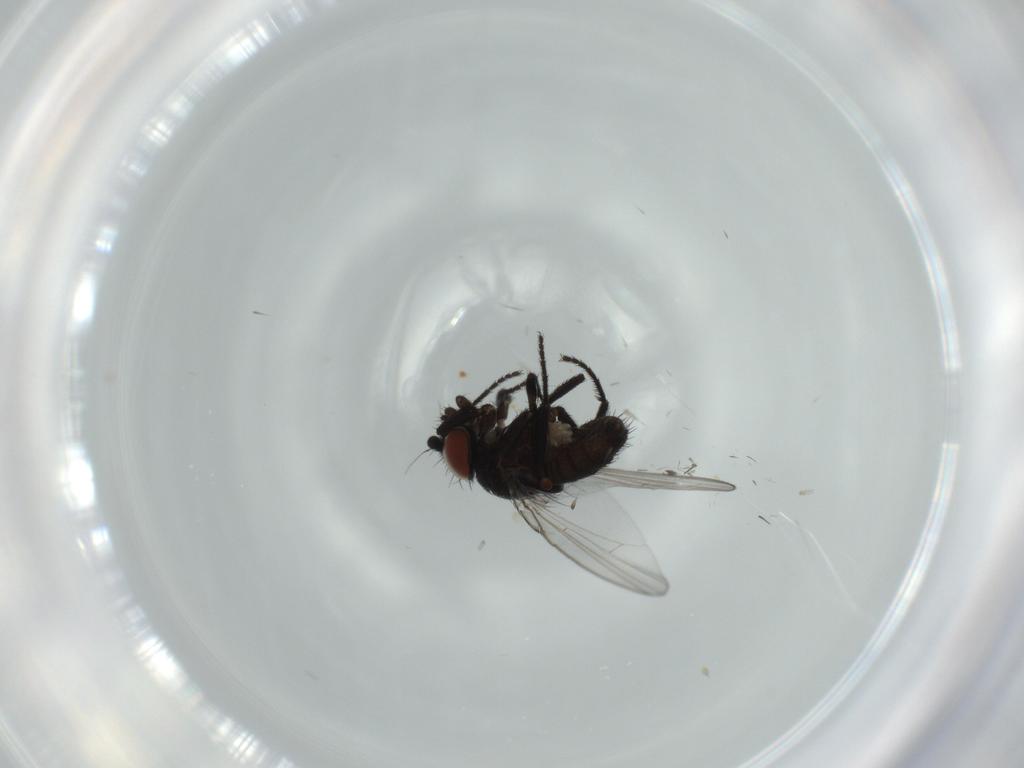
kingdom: Animalia
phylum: Arthropoda
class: Insecta
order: Diptera
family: Milichiidae
